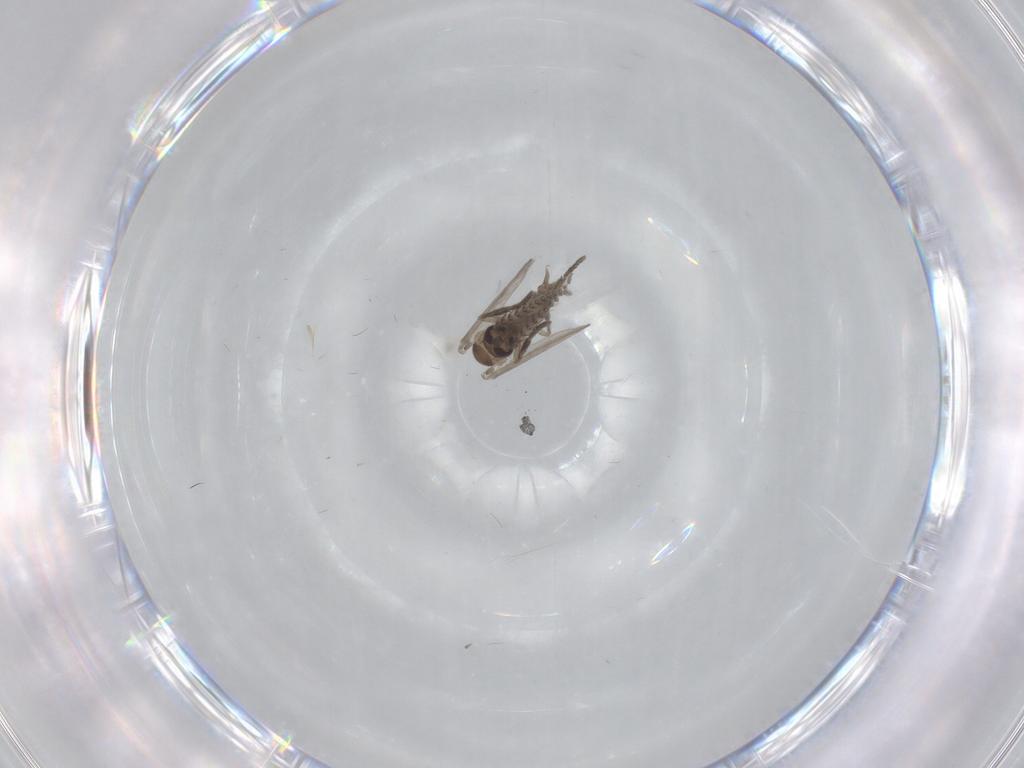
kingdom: Animalia
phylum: Arthropoda
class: Insecta
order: Diptera
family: Psychodidae
